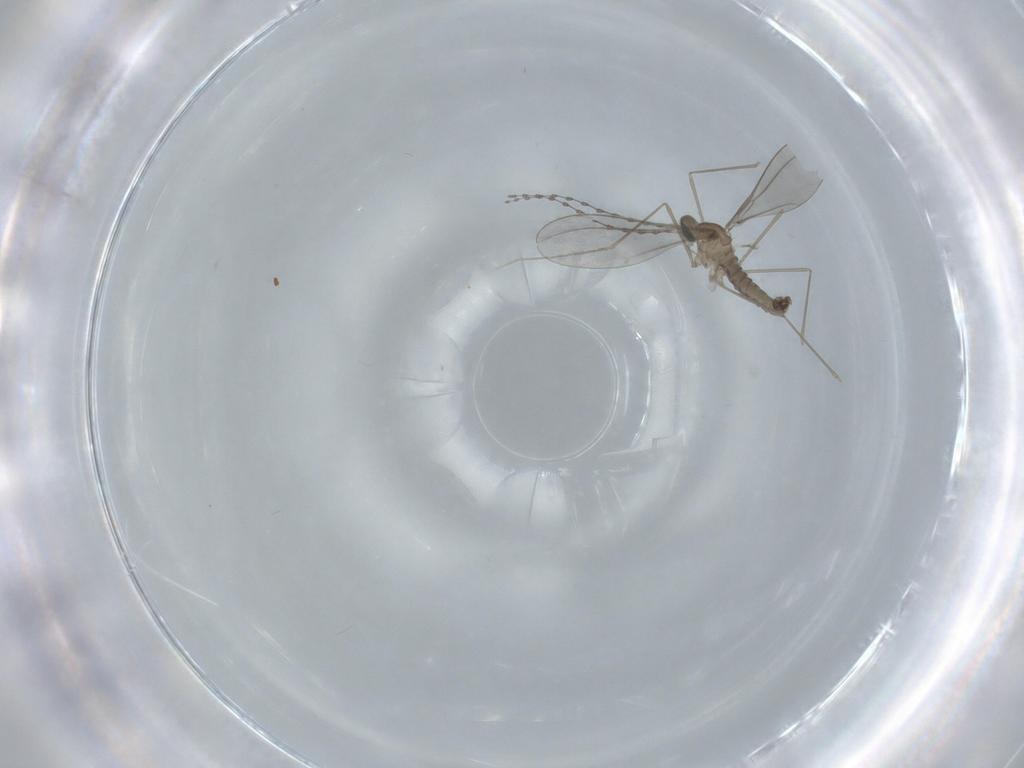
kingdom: Animalia
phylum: Arthropoda
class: Insecta
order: Diptera
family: Cecidomyiidae
